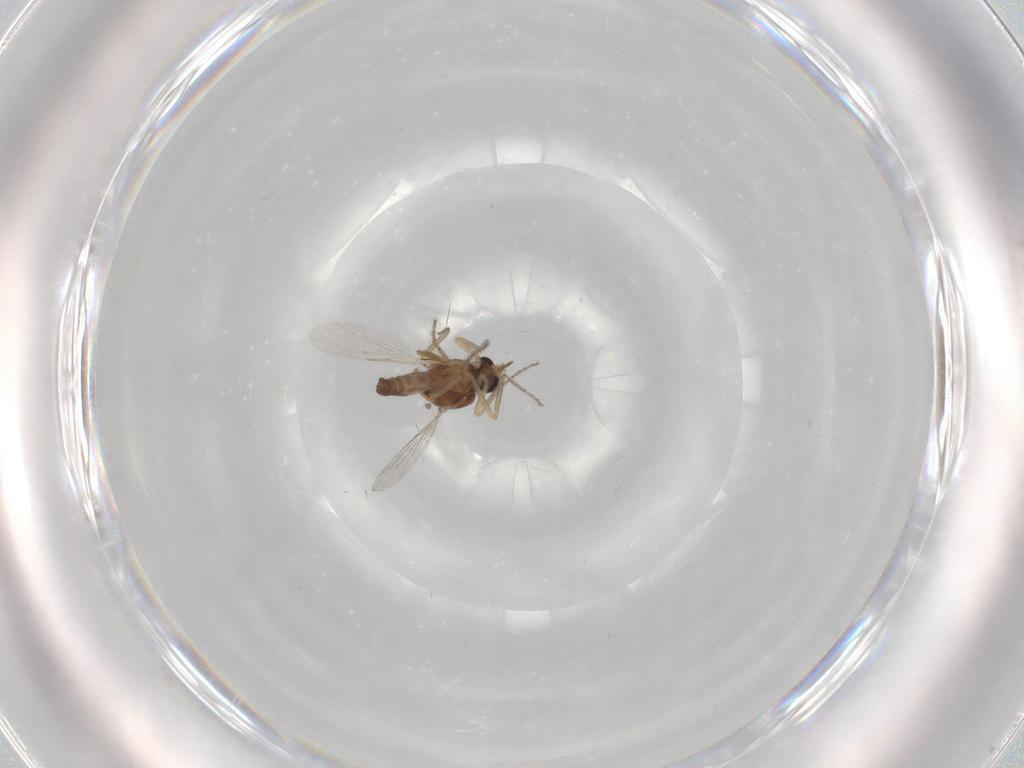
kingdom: Animalia
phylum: Arthropoda
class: Insecta
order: Diptera
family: Ceratopogonidae
